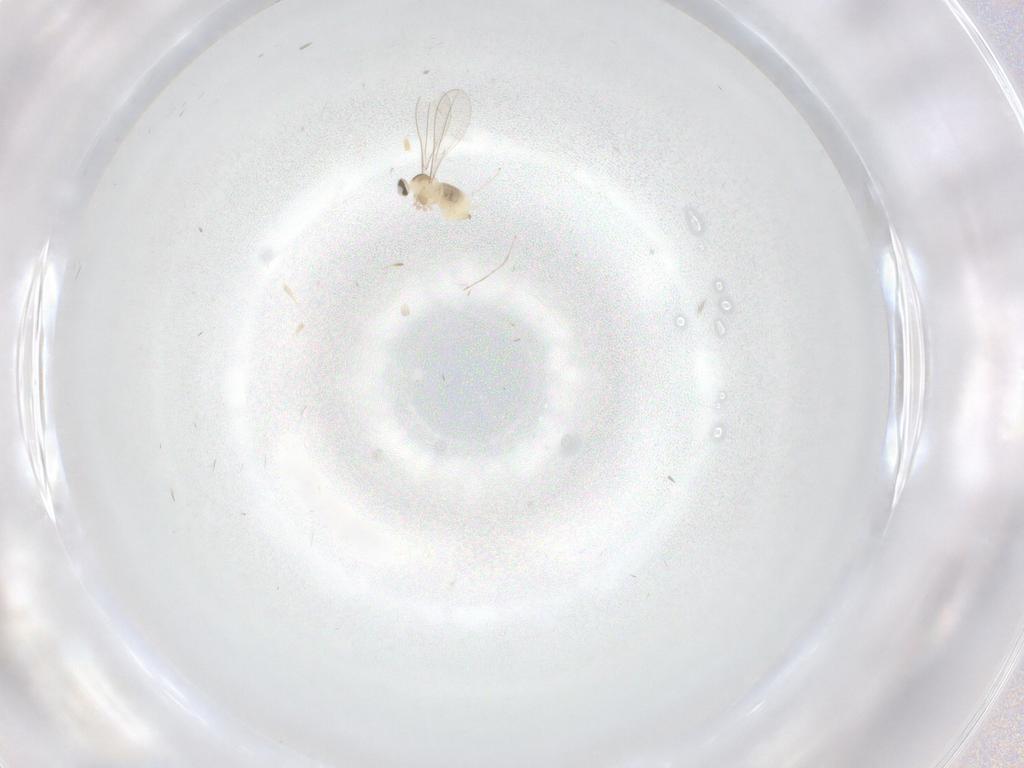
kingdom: Animalia
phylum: Arthropoda
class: Insecta
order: Diptera
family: Cecidomyiidae
